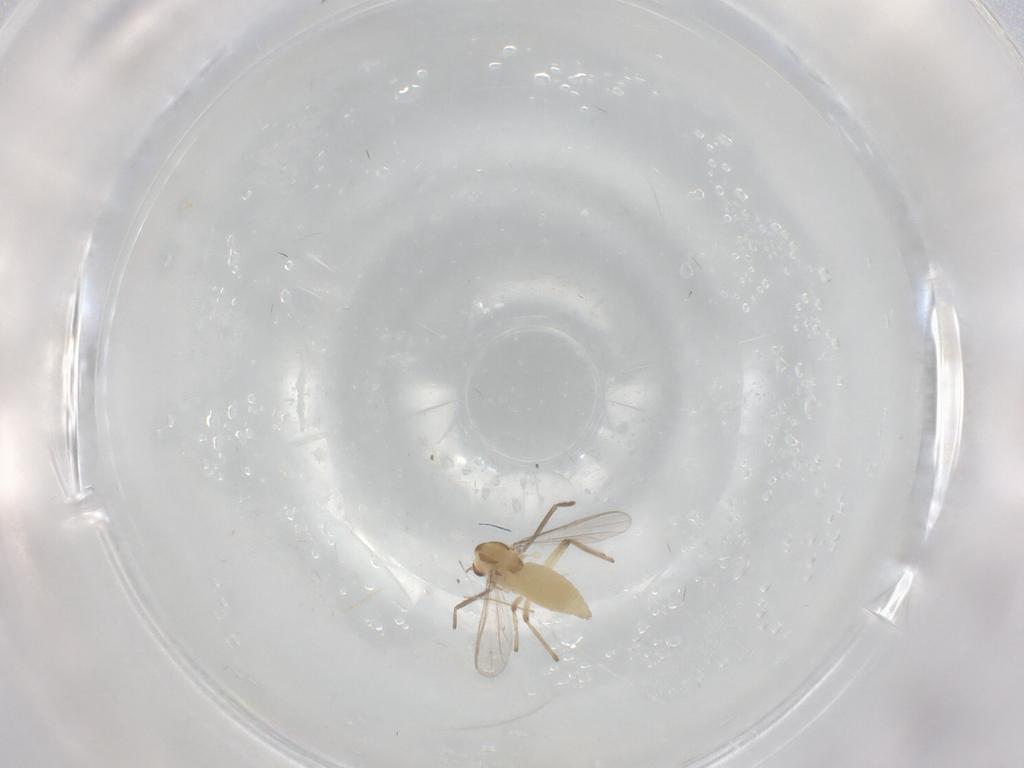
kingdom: Animalia
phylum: Arthropoda
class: Insecta
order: Diptera
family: Chironomidae
